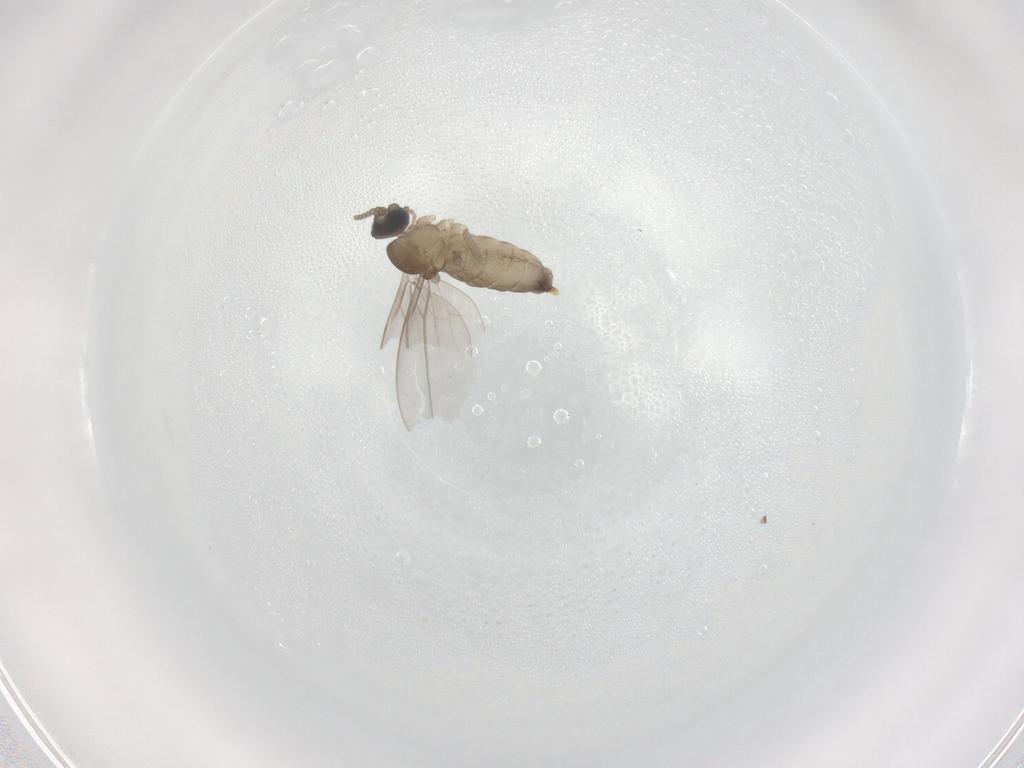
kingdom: Animalia
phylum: Arthropoda
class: Insecta
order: Diptera
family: Cecidomyiidae
